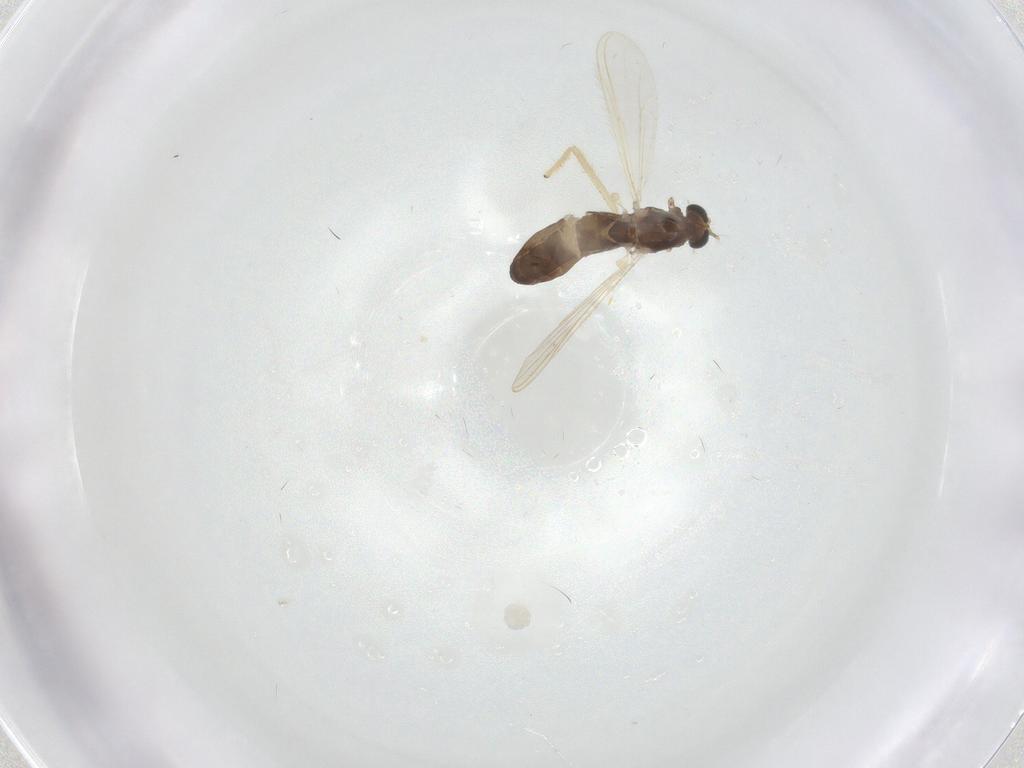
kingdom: Animalia
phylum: Arthropoda
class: Insecta
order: Diptera
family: Chironomidae
